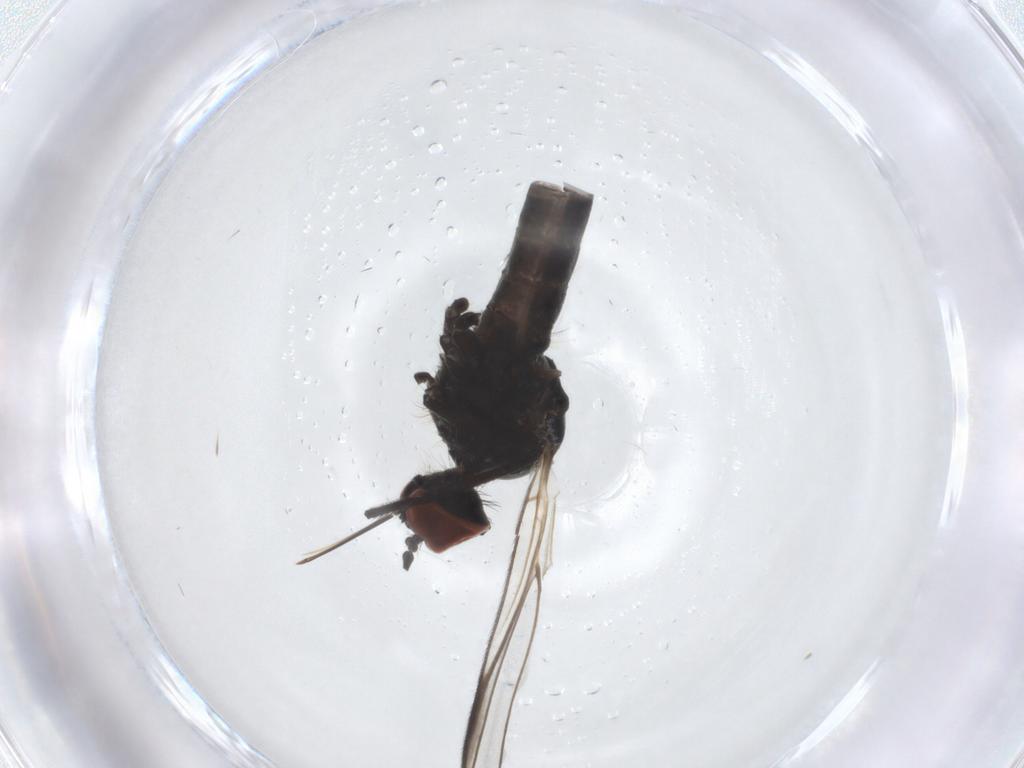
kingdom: Animalia
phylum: Arthropoda
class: Insecta
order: Diptera
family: Empididae
